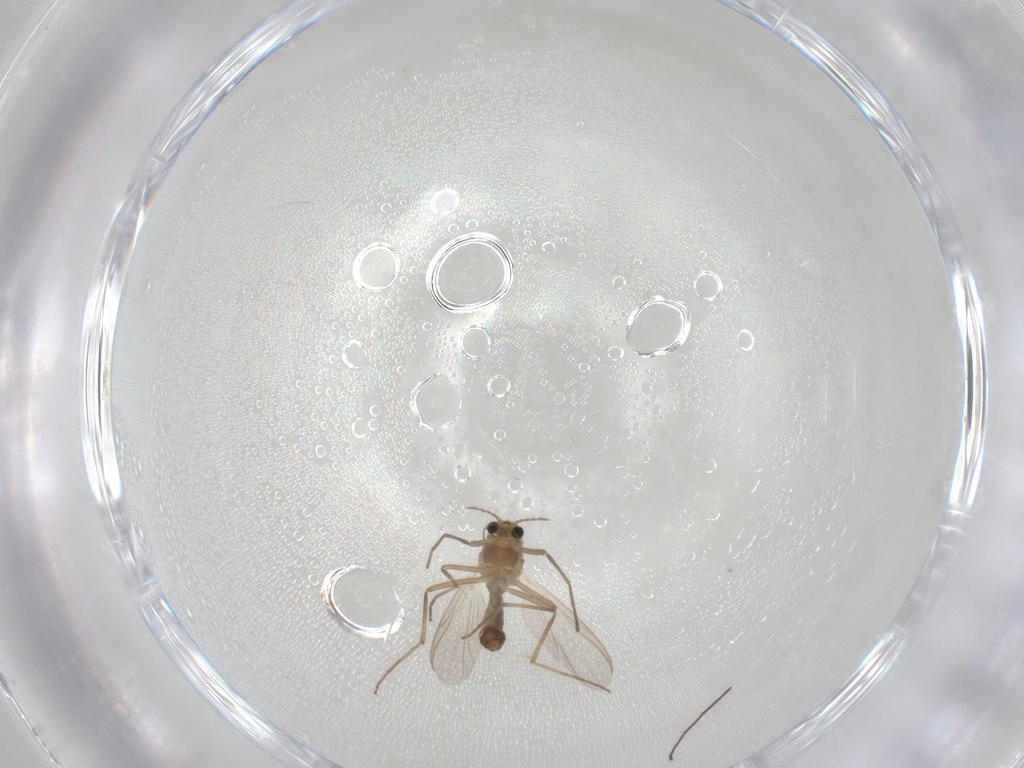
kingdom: Animalia
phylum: Arthropoda
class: Insecta
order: Diptera
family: Chironomidae
